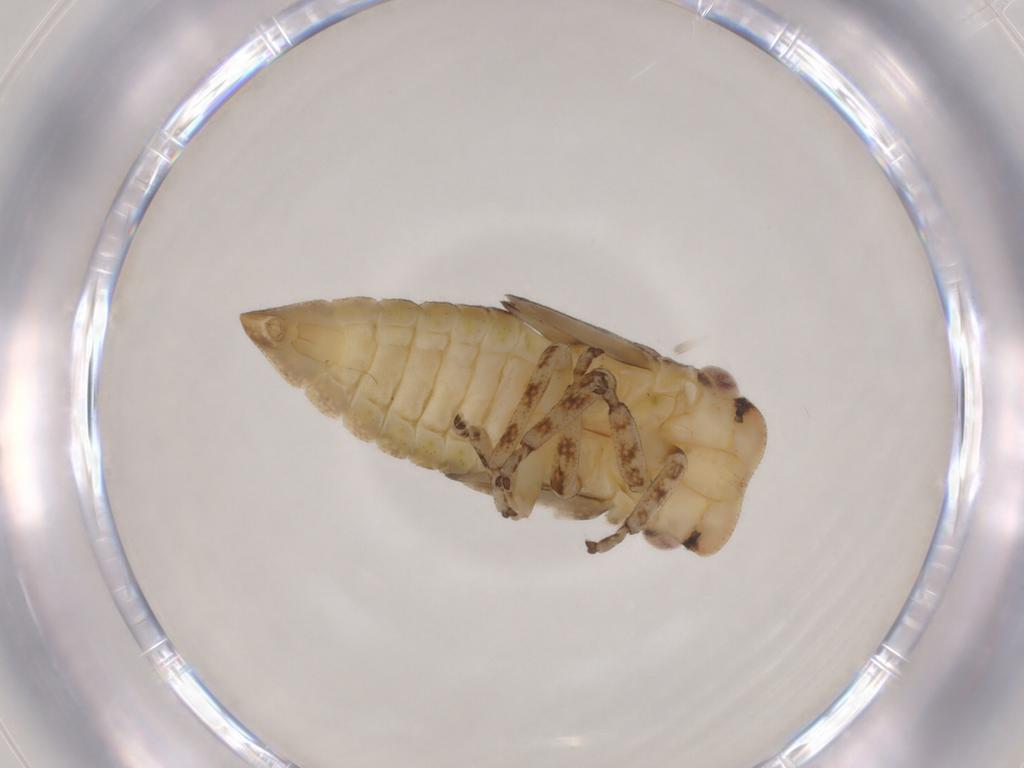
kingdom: Animalia
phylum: Arthropoda
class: Insecta
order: Hemiptera
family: Cicadellidae
